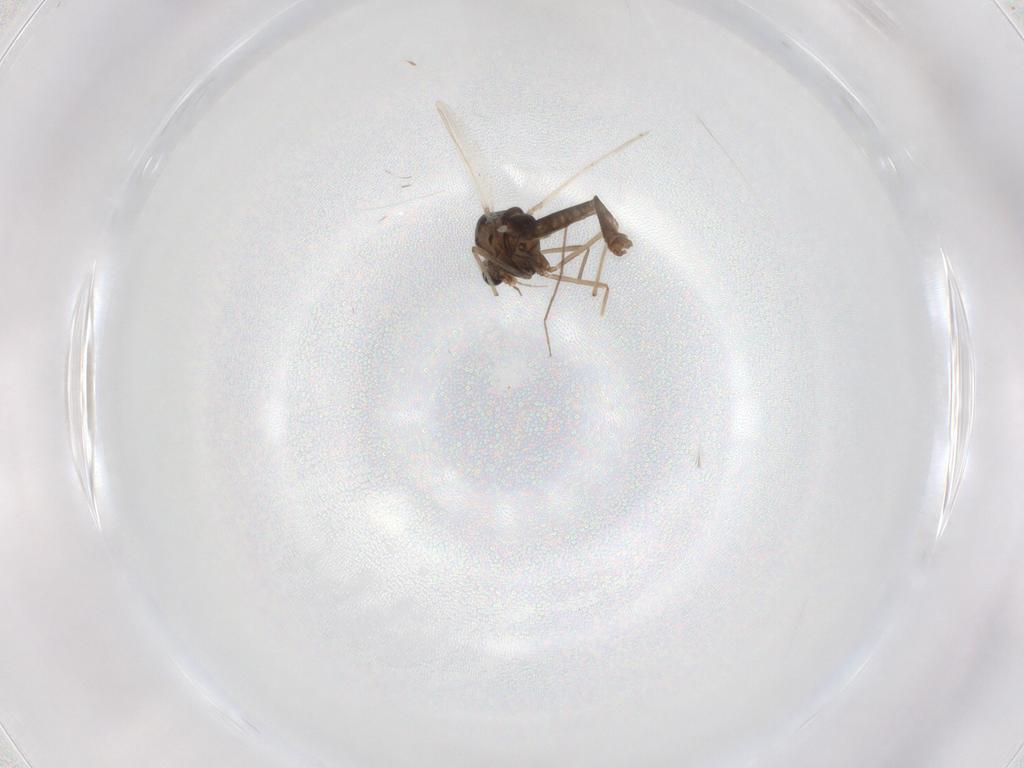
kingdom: Animalia
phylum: Arthropoda
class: Insecta
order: Diptera
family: Chironomidae
